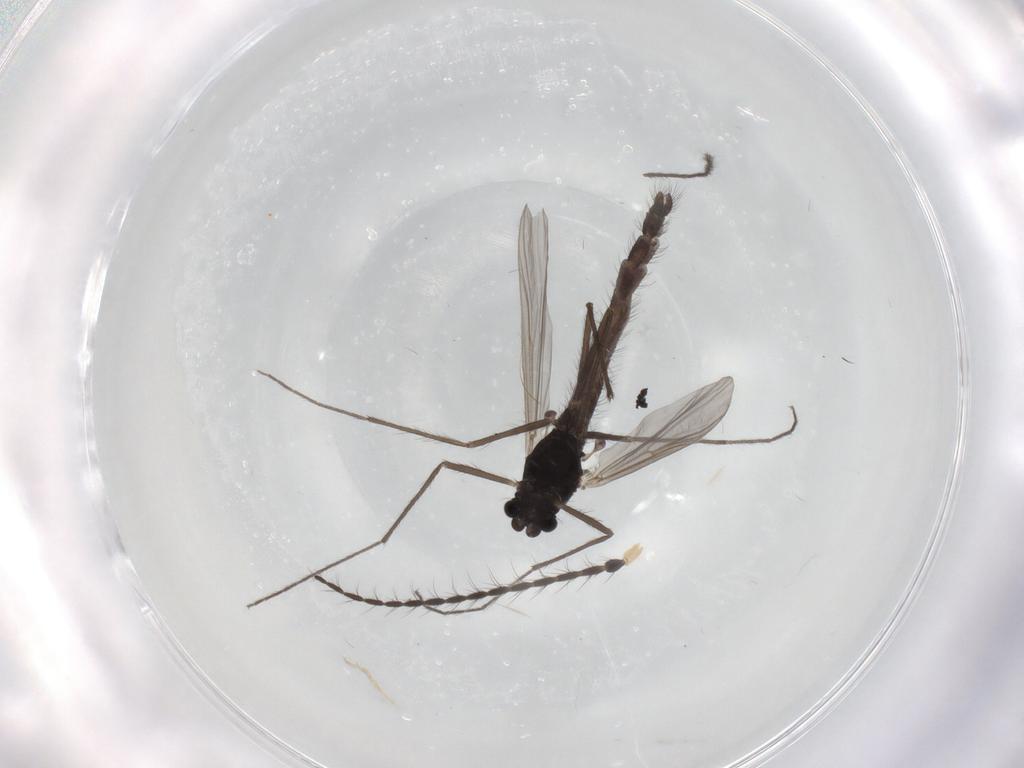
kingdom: Animalia
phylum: Arthropoda
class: Insecta
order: Diptera
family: Chironomidae
